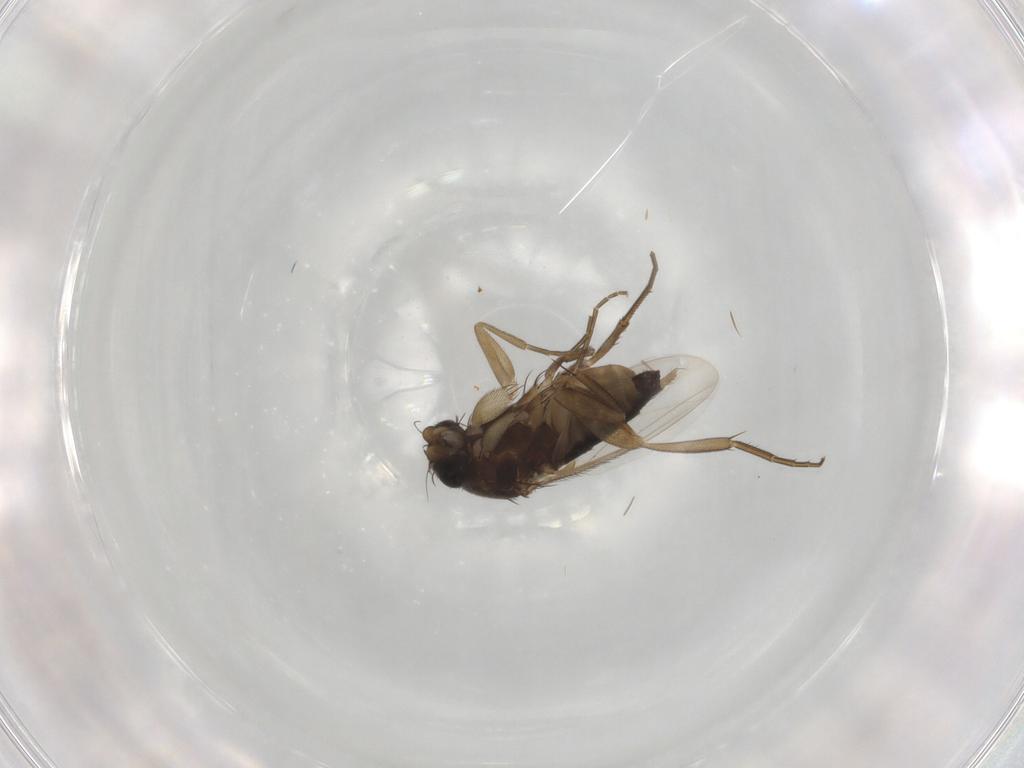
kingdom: Animalia
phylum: Arthropoda
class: Insecta
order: Diptera
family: Phoridae
